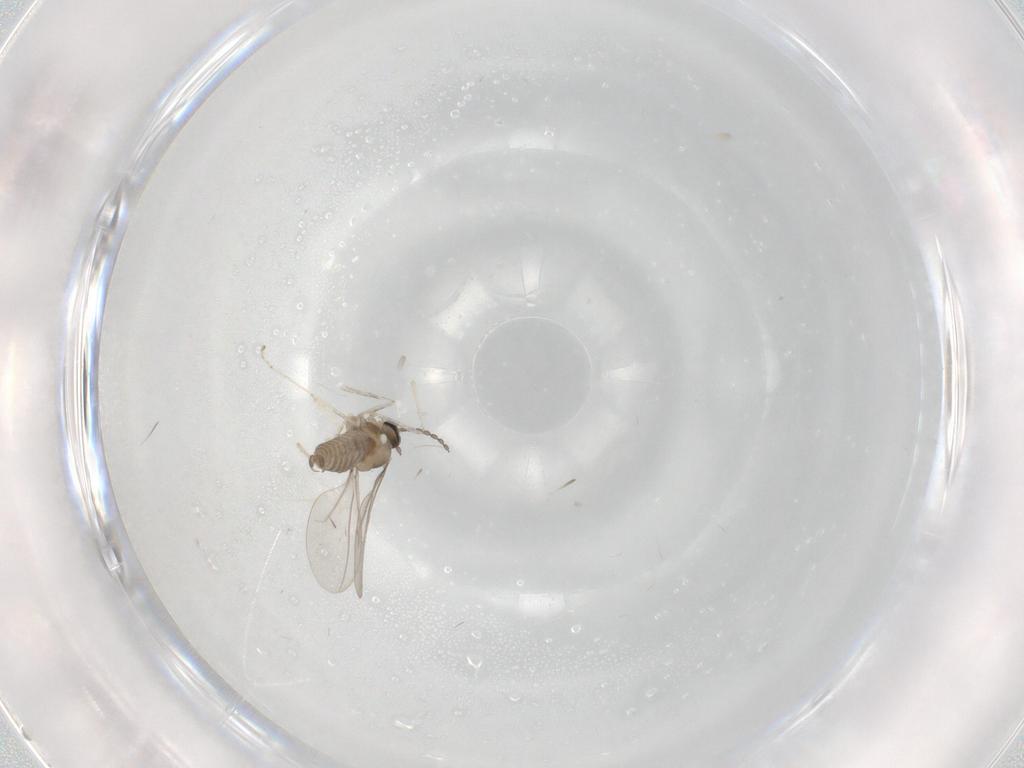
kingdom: Animalia
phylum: Arthropoda
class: Insecta
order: Diptera
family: Cecidomyiidae
